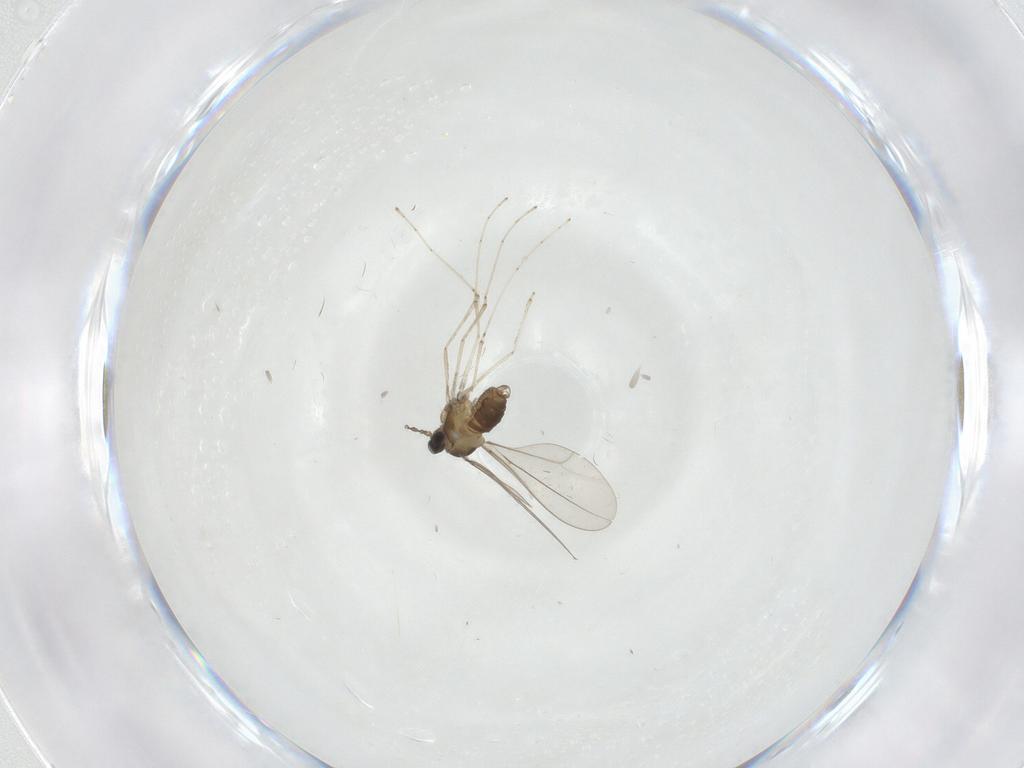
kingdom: Animalia
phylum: Arthropoda
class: Insecta
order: Diptera
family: Cecidomyiidae
